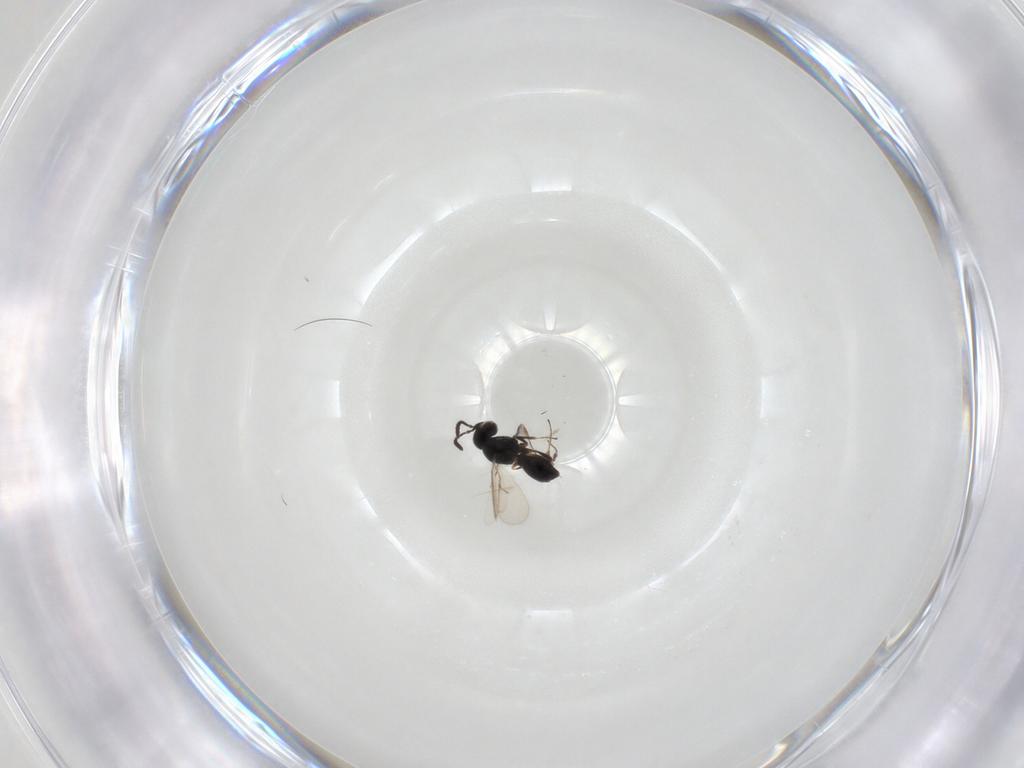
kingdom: Animalia
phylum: Arthropoda
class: Insecta
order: Hymenoptera
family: Scelionidae
